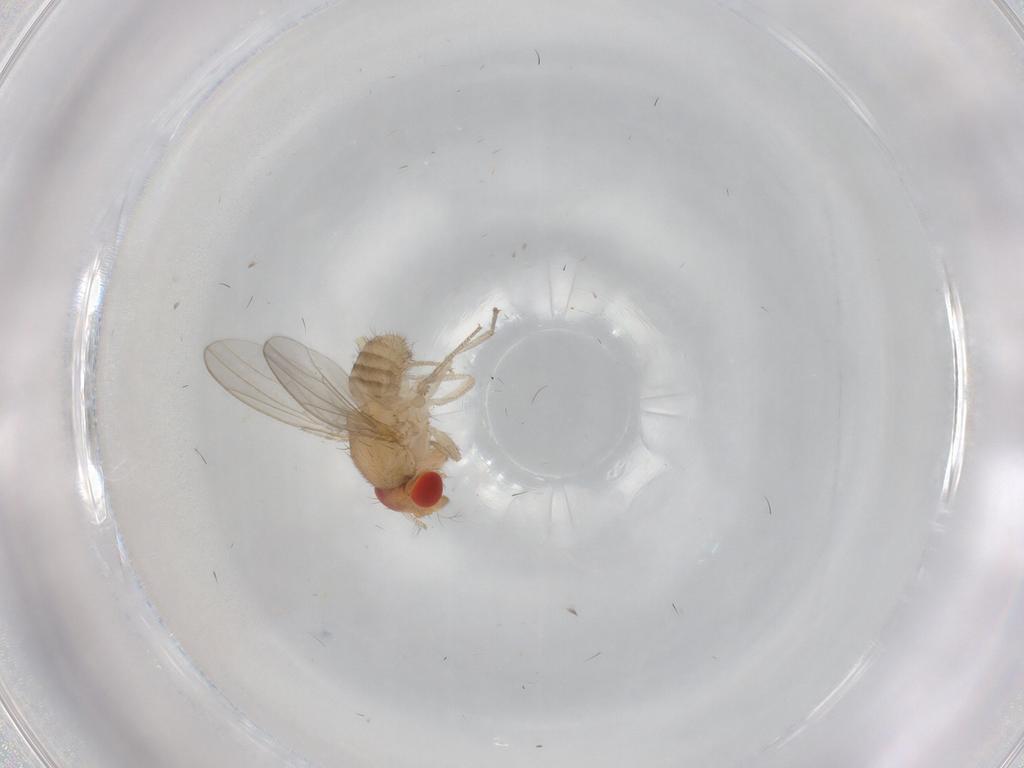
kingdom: Animalia
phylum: Arthropoda
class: Insecta
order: Diptera
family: Drosophilidae
